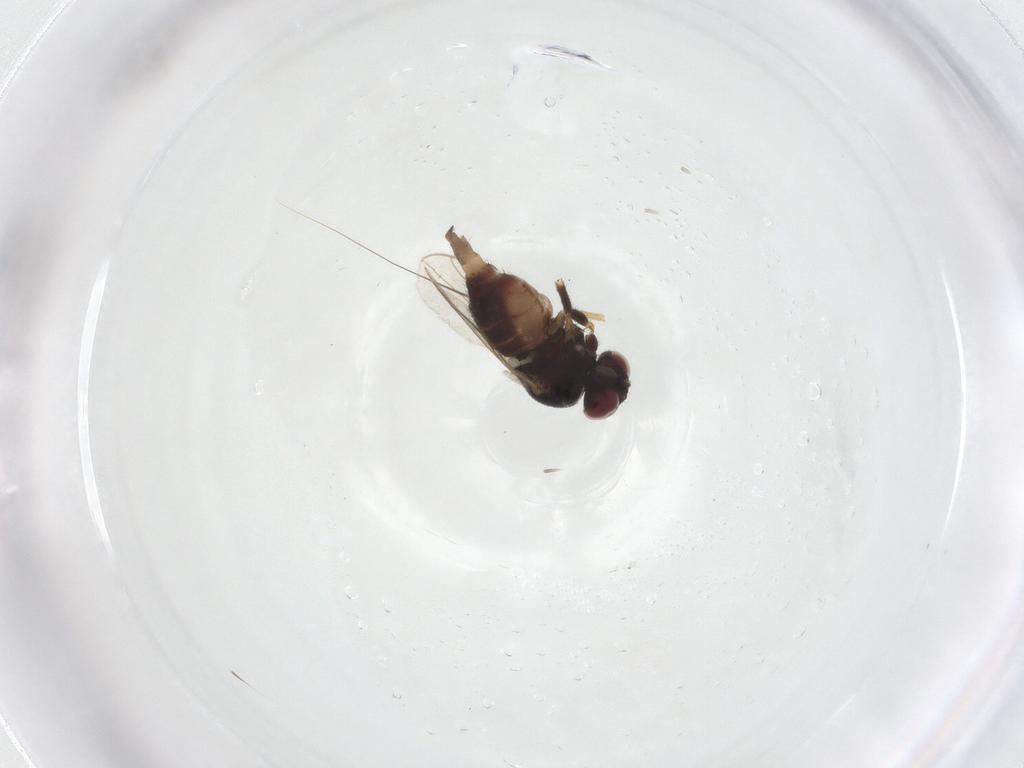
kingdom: Animalia
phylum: Arthropoda
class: Insecta
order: Diptera
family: Chloropidae
